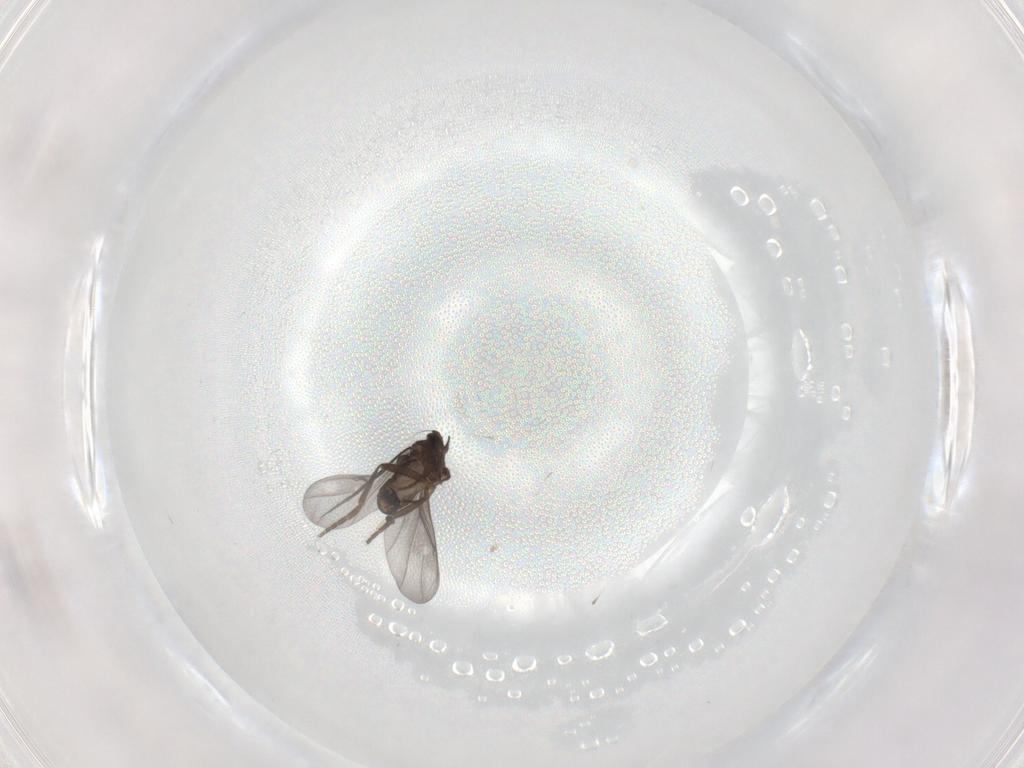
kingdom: Animalia
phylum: Arthropoda
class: Insecta
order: Diptera
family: Phoridae
